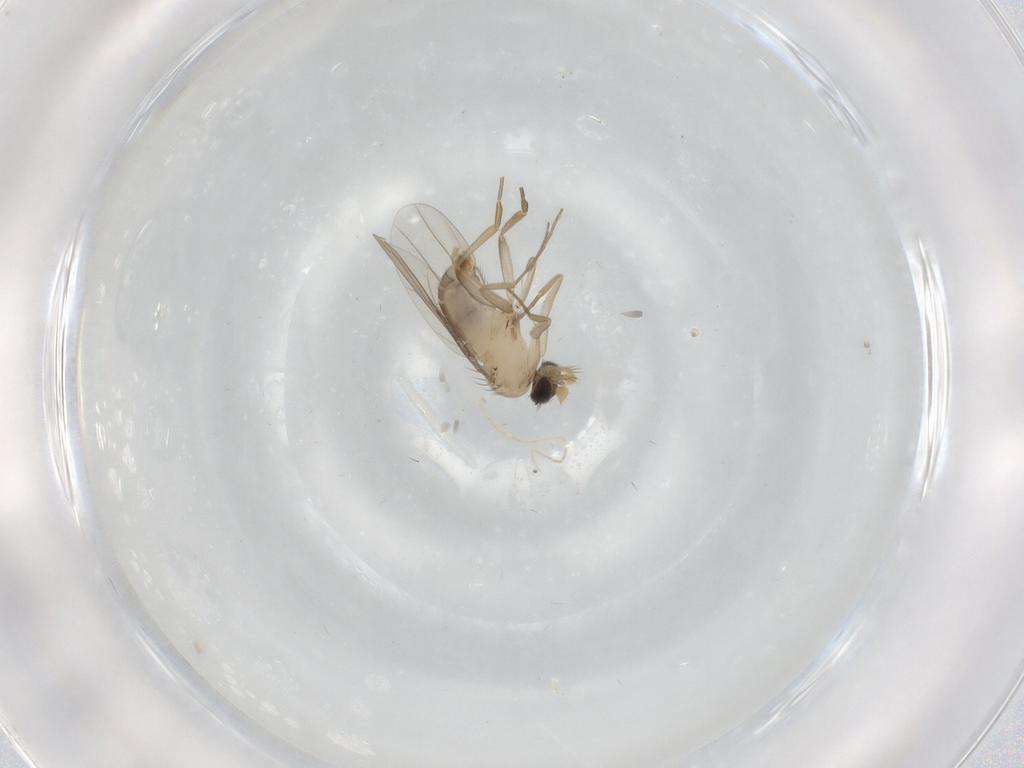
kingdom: Animalia
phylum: Arthropoda
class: Insecta
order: Diptera
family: Phoridae
